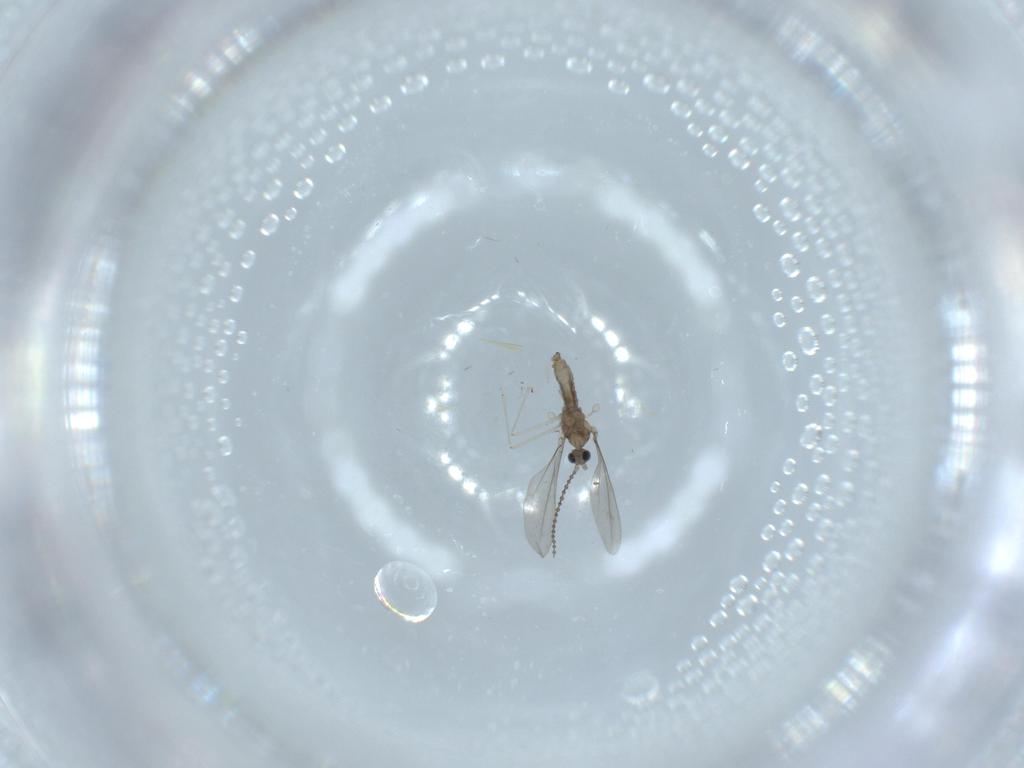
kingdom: Animalia
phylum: Arthropoda
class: Insecta
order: Diptera
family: Cecidomyiidae
